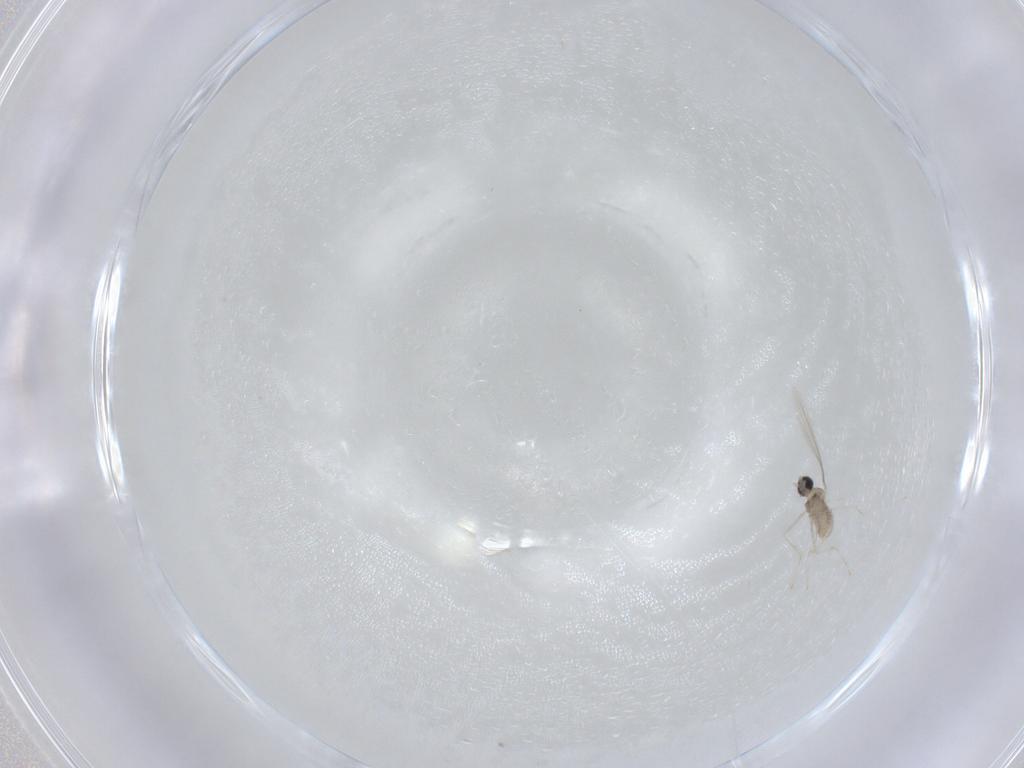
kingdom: Animalia
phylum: Arthropoda
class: Insecta
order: Diptera
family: Cecidomyiidae
